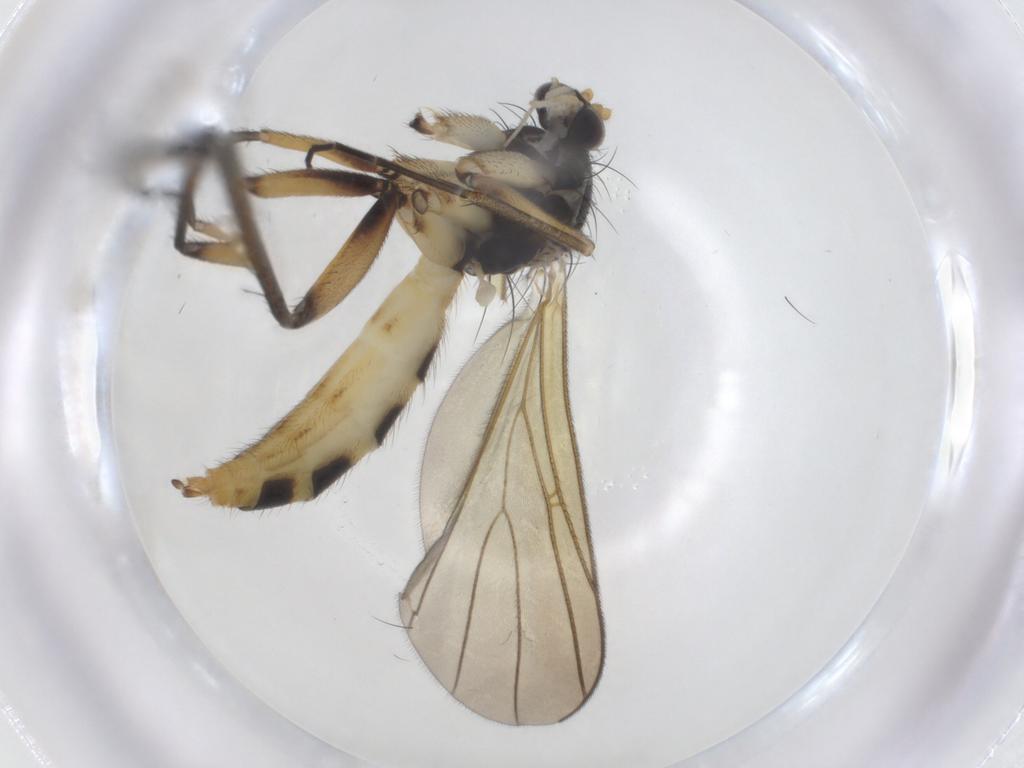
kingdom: Animalia
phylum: Arthropoda
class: Insecta
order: Diptera
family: Mycetophilidae
